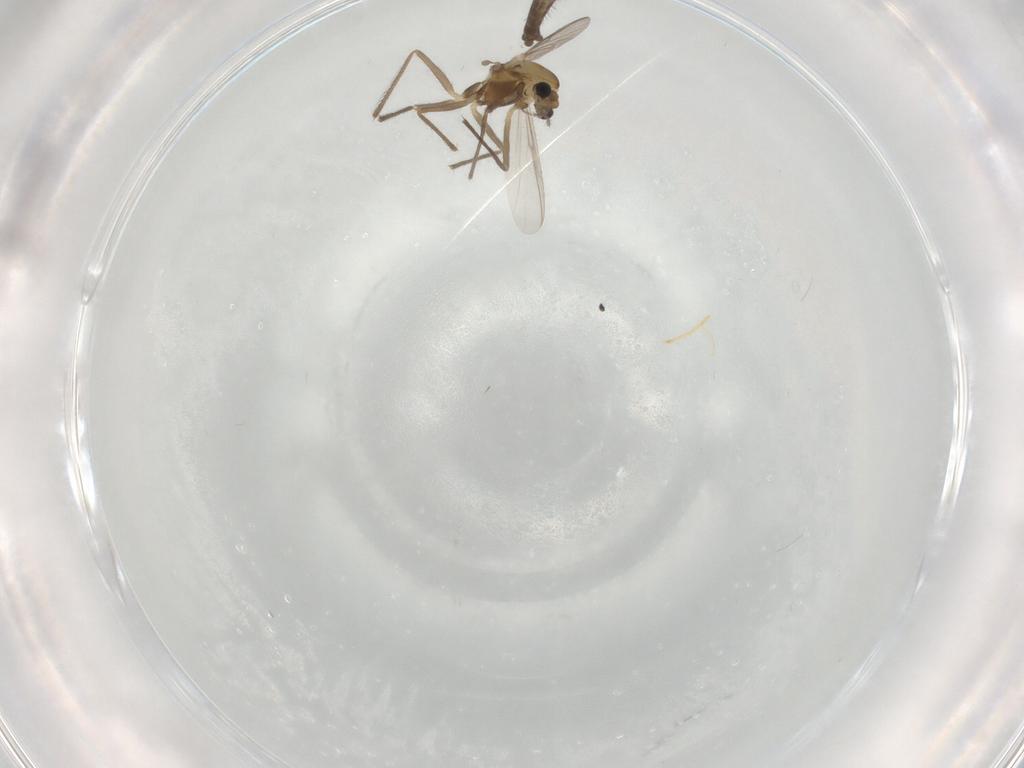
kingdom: Animalia
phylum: Arthropoda
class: Insecta
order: Diptera
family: Chironomidae
